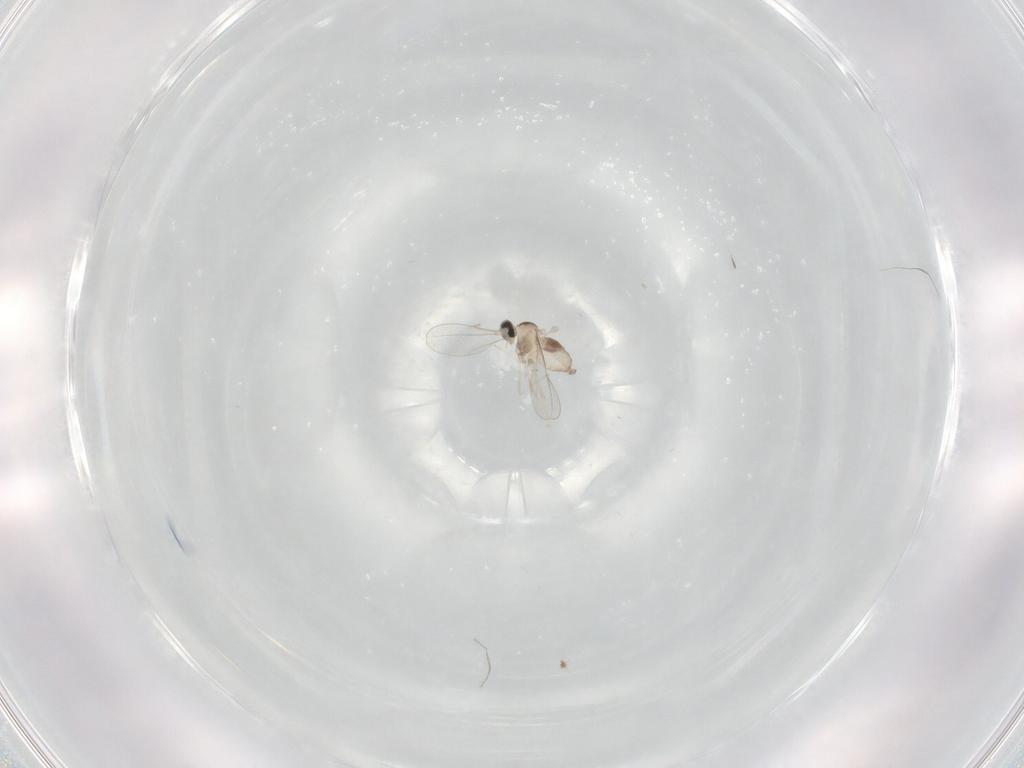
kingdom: Animalia
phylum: Arthropoda
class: Insecta
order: Diptera
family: Cecidomyiidae
